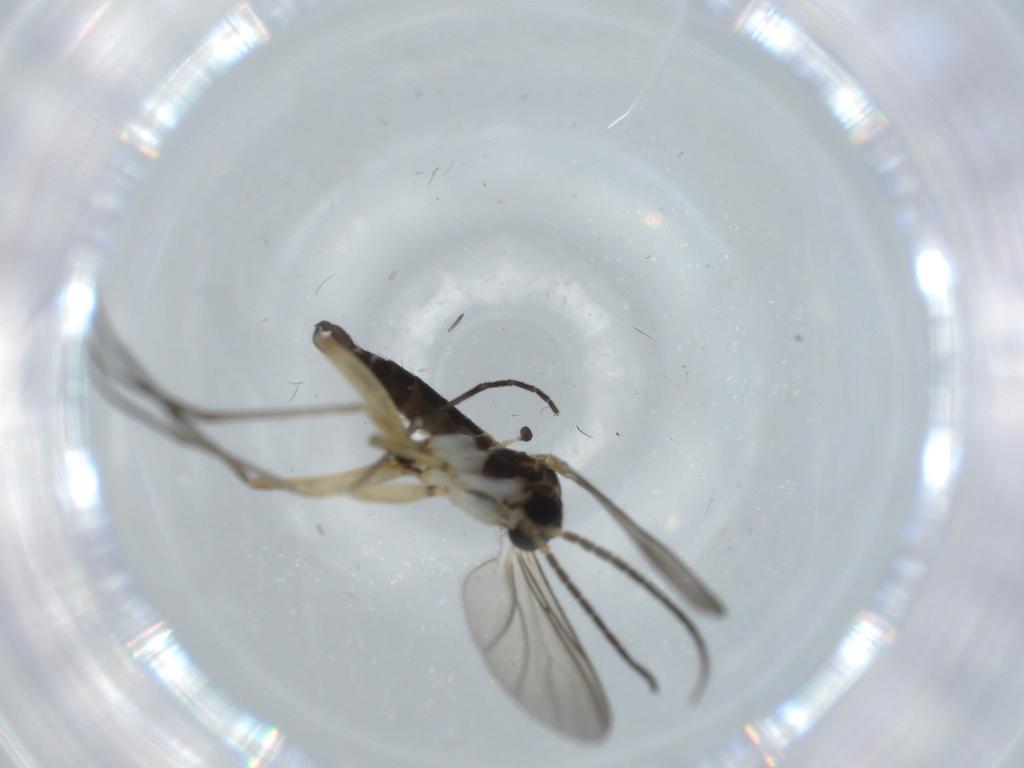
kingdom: Animalia
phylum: Arthropoda
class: Insecta
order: Diptera
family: Sciaridae
